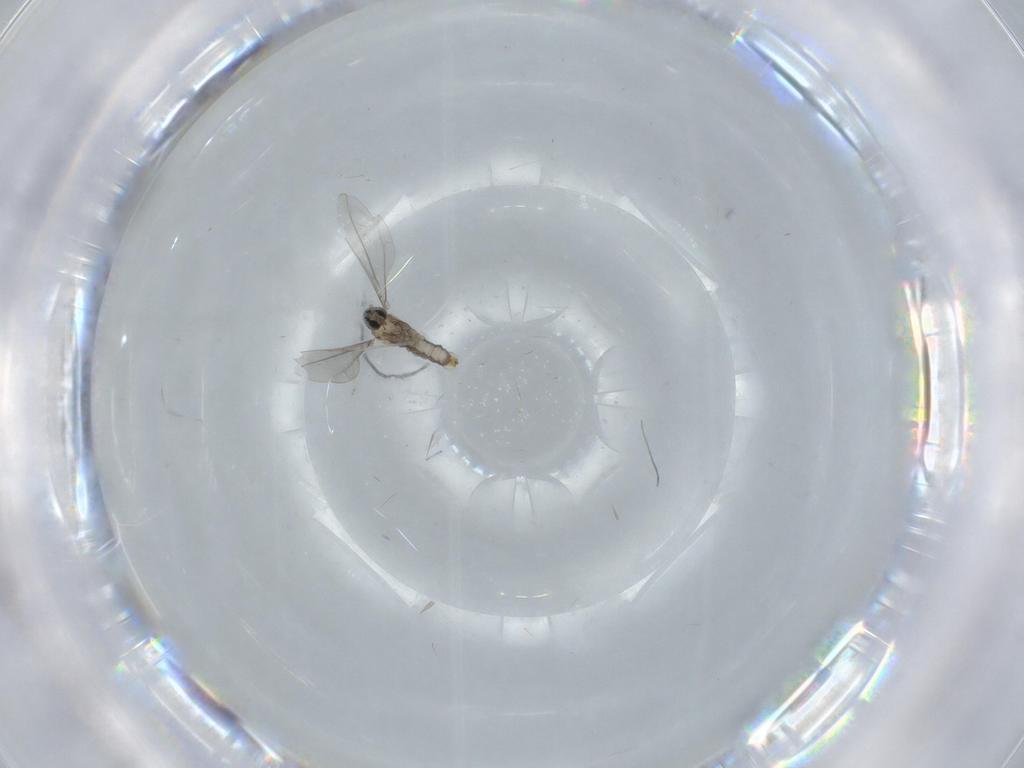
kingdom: Animalia
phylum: Arthropoda
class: Insecta
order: Diptera
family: Cecidomyiidae
